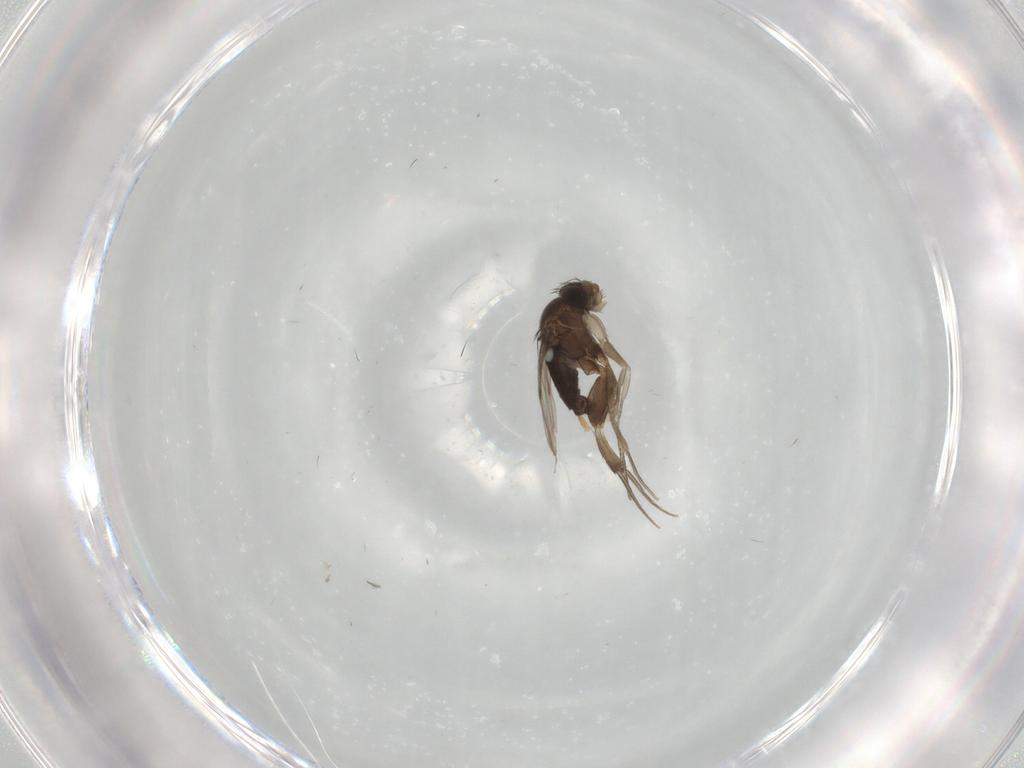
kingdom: Animalia
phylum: Arthropoda
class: Insecta
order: Diptera
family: Phoridae
